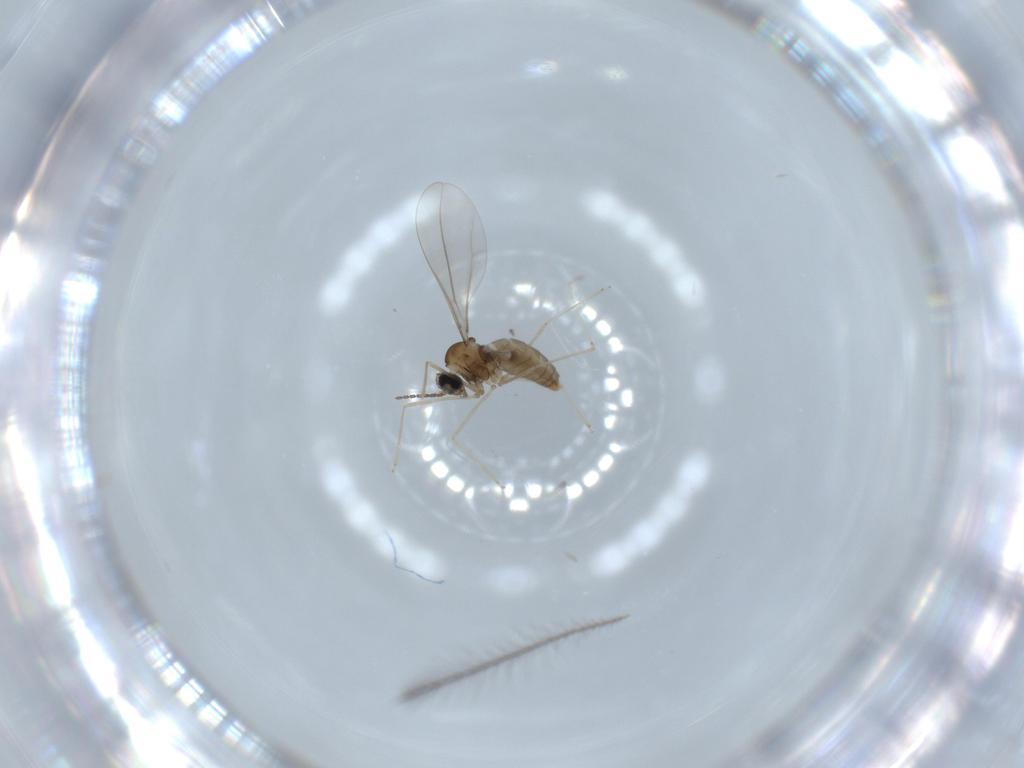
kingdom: Animalia
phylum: Arthropoda
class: Insecta
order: Diptera
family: Cecidomyiidae
